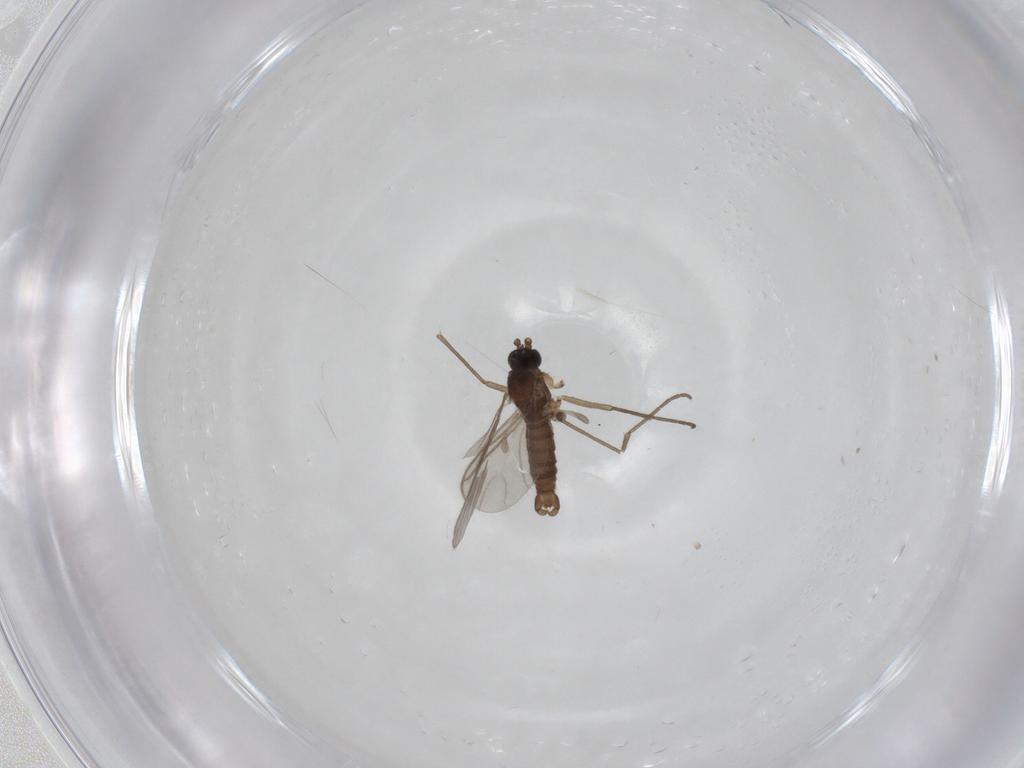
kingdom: Animalia
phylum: Arthropoda
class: Insecta
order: Diptera
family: Sciaridae
